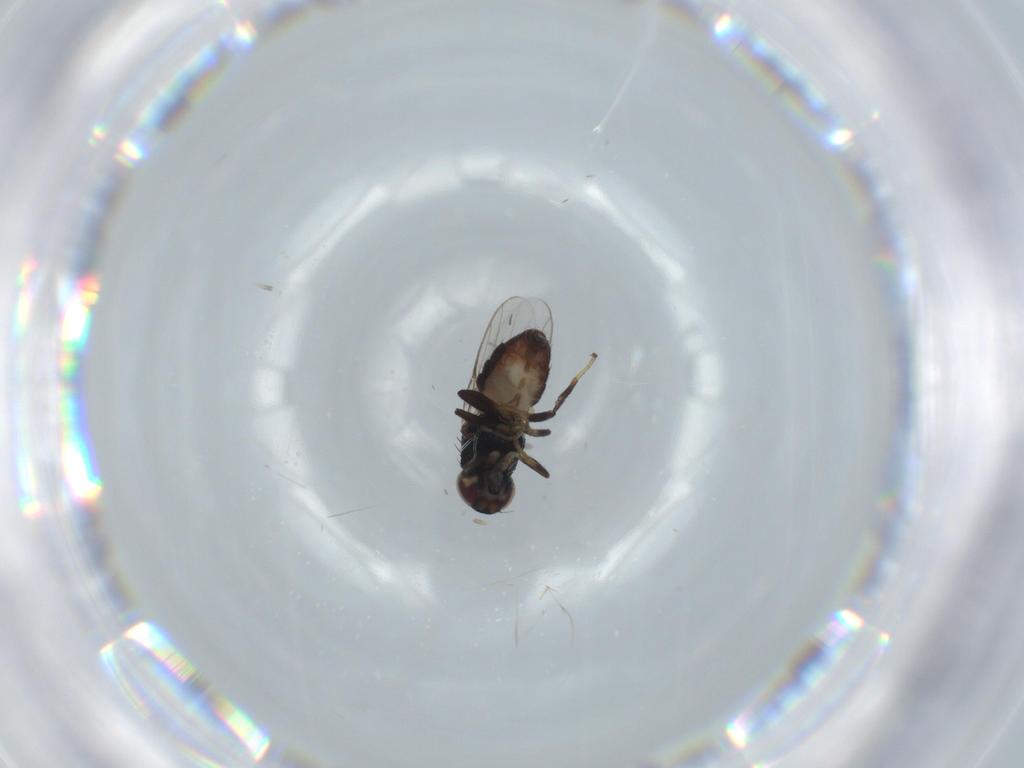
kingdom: Animalia
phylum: Arthropoda
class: Insecta
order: Diptera
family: Chloropidae
